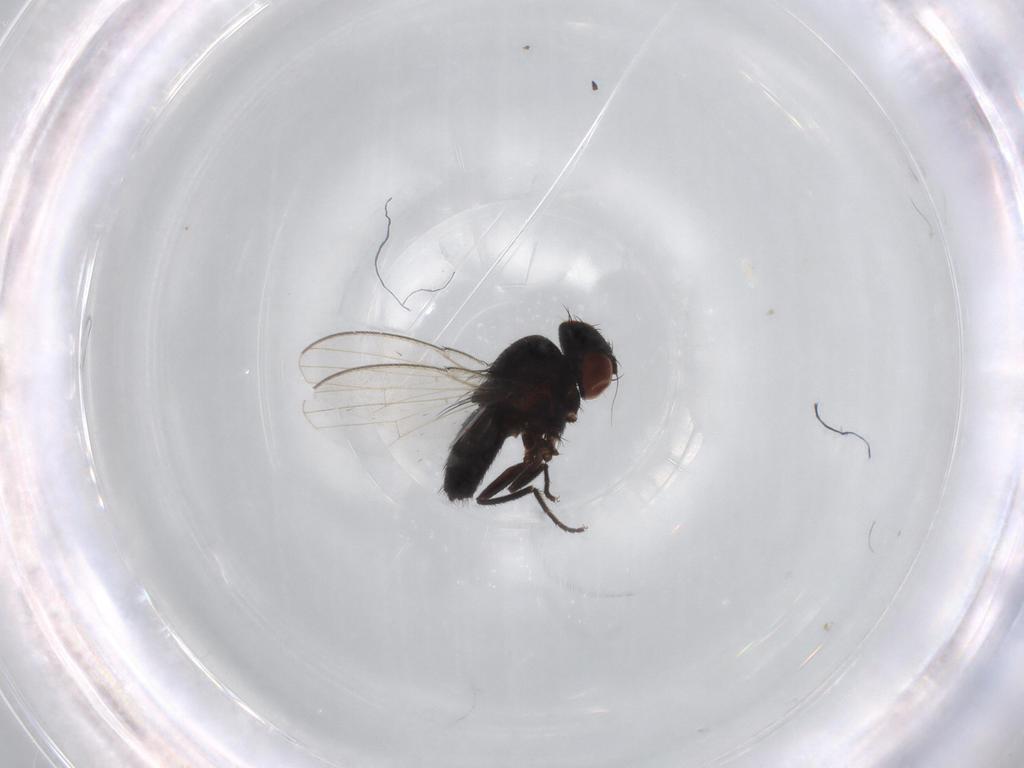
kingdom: Animalia
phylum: Arthropoda
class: Insecta
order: Diptera
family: Milichiidae
